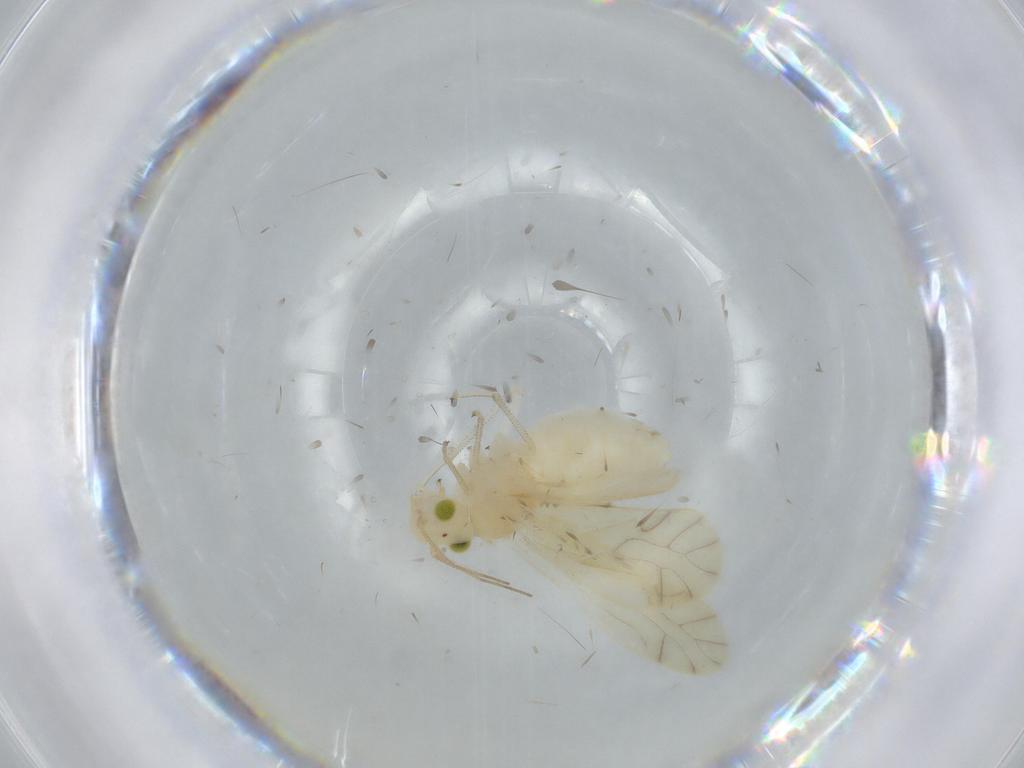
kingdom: Animalia
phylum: Arthropoda
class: Insecta
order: Psocodea
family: Caeciliusidae
